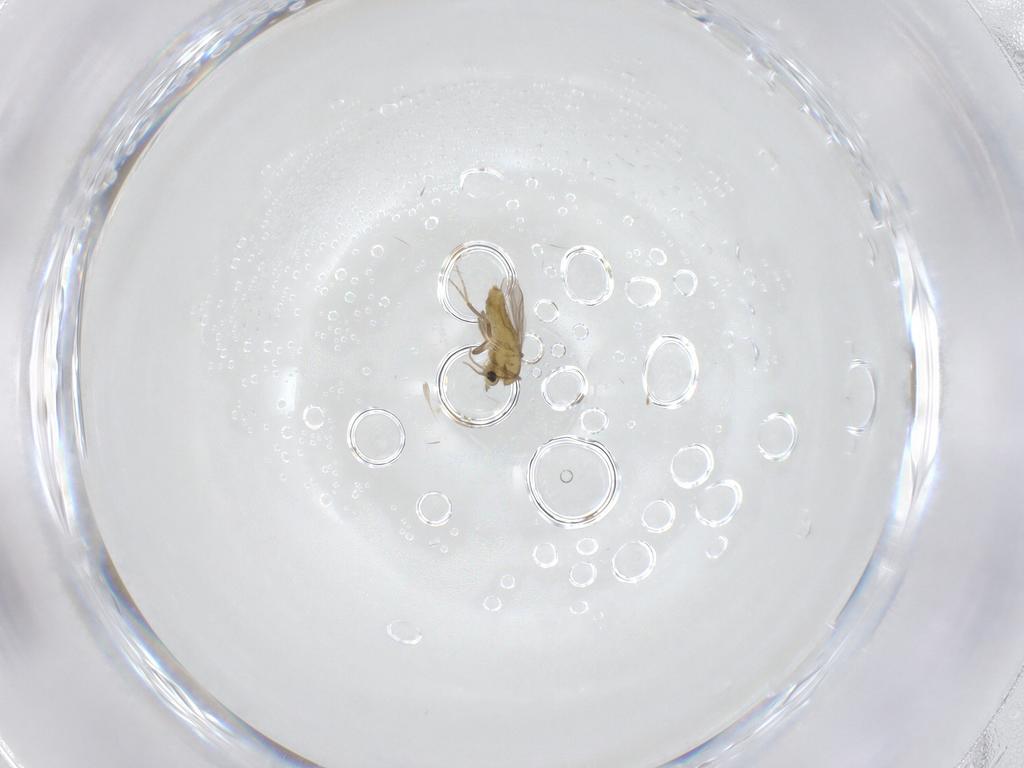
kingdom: Animalia
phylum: Arthropoda
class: Insecta
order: Diptera
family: Chironomidae
